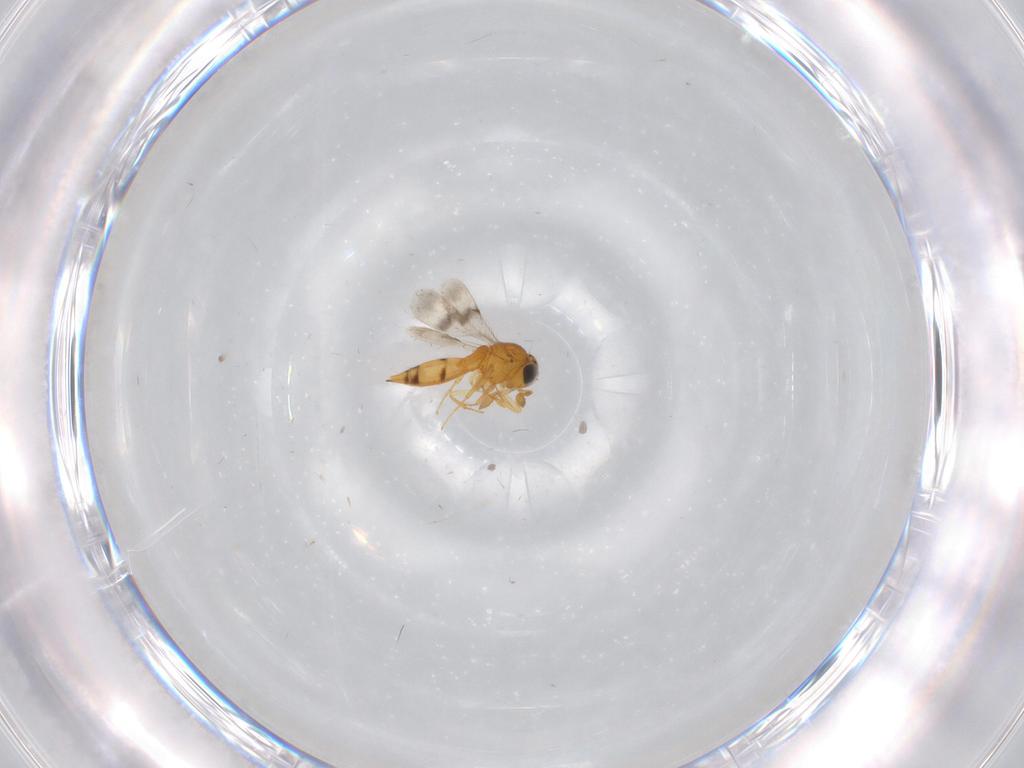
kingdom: Animalia
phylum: Arthropoda
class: Insecta
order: Hymenoptera
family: Scelionidae
